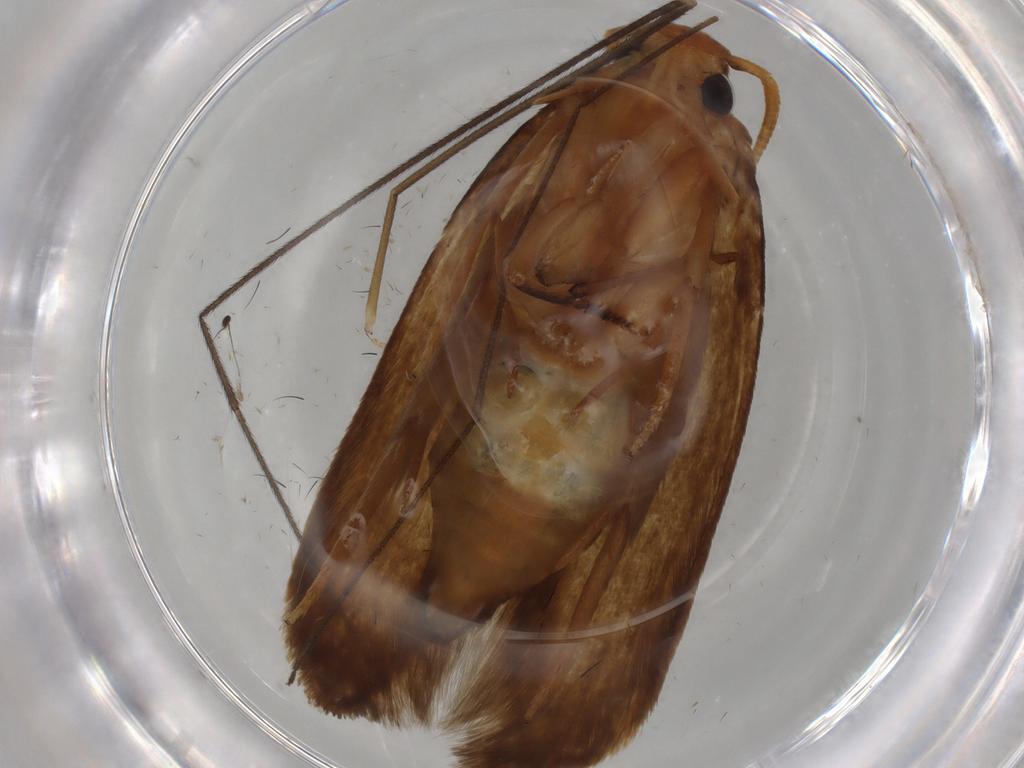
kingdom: Animalia
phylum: Arthropoda
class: Insecta
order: Lepidoptera
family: Tineidae
